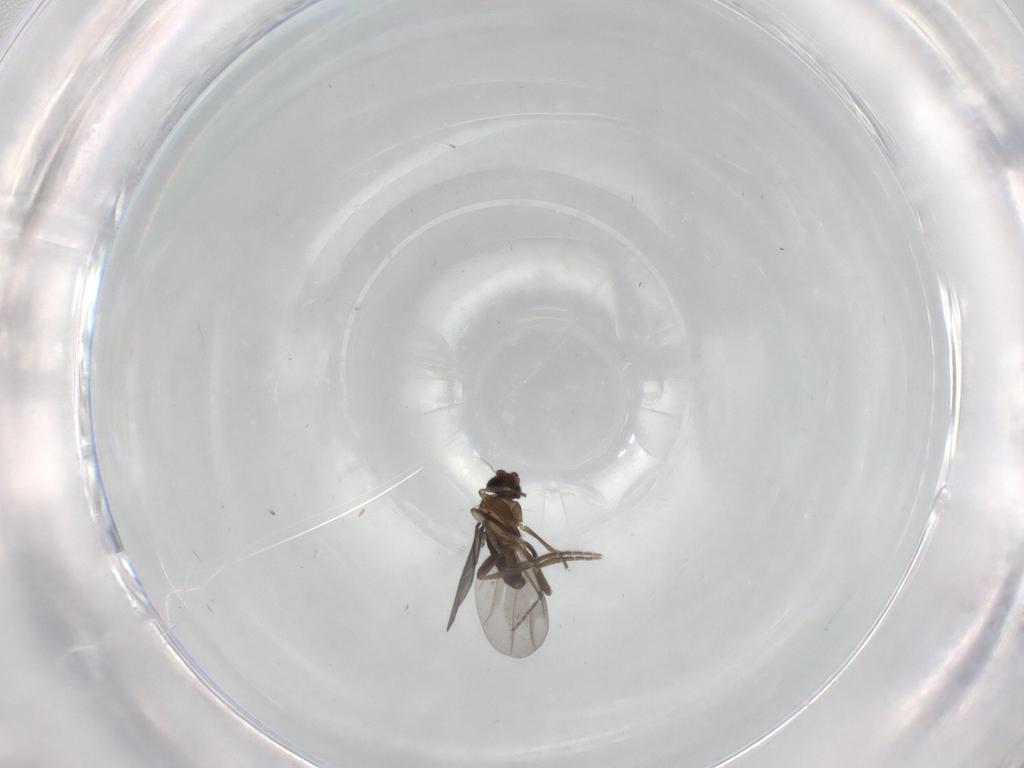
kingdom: Animalia
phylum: Arthropoda
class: Insecta
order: Diptera
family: Phoridae
